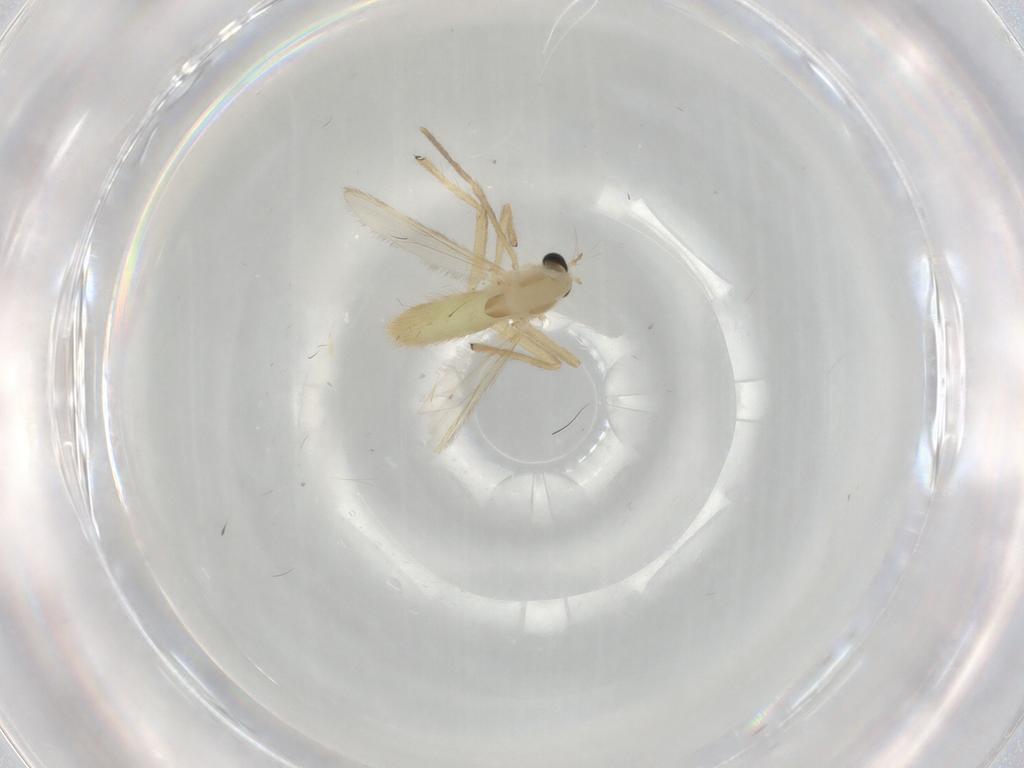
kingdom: Animalia
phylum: Arthropoda
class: Insecta
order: Diptera
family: Chironomidae
